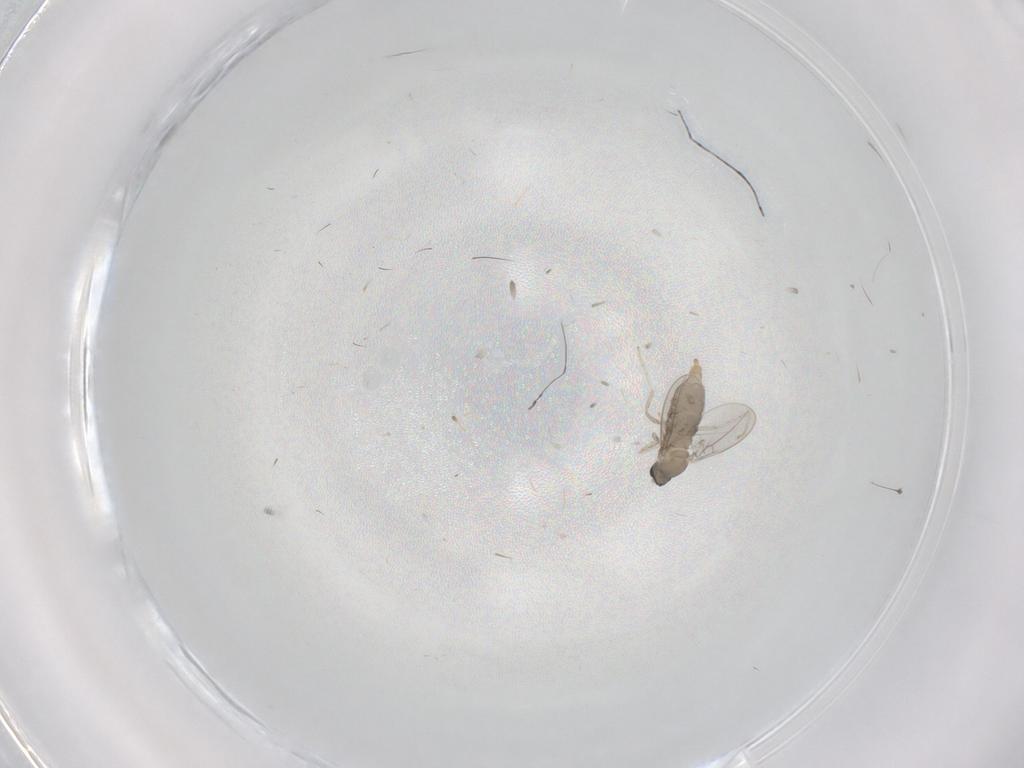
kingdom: Animalia
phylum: Arthropoda
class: Insecta
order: Diptera
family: Cecidomyiidae
